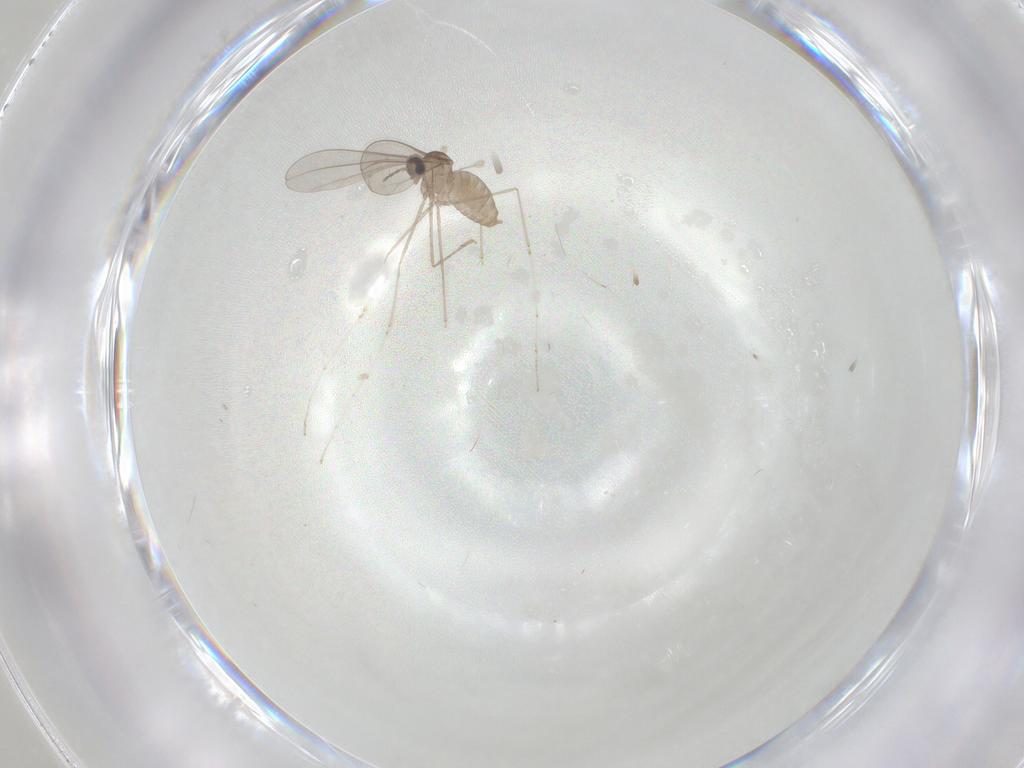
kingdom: Animalia
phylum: Arthropoda
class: Insecta
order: Diptera
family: Cecidomyiidae
